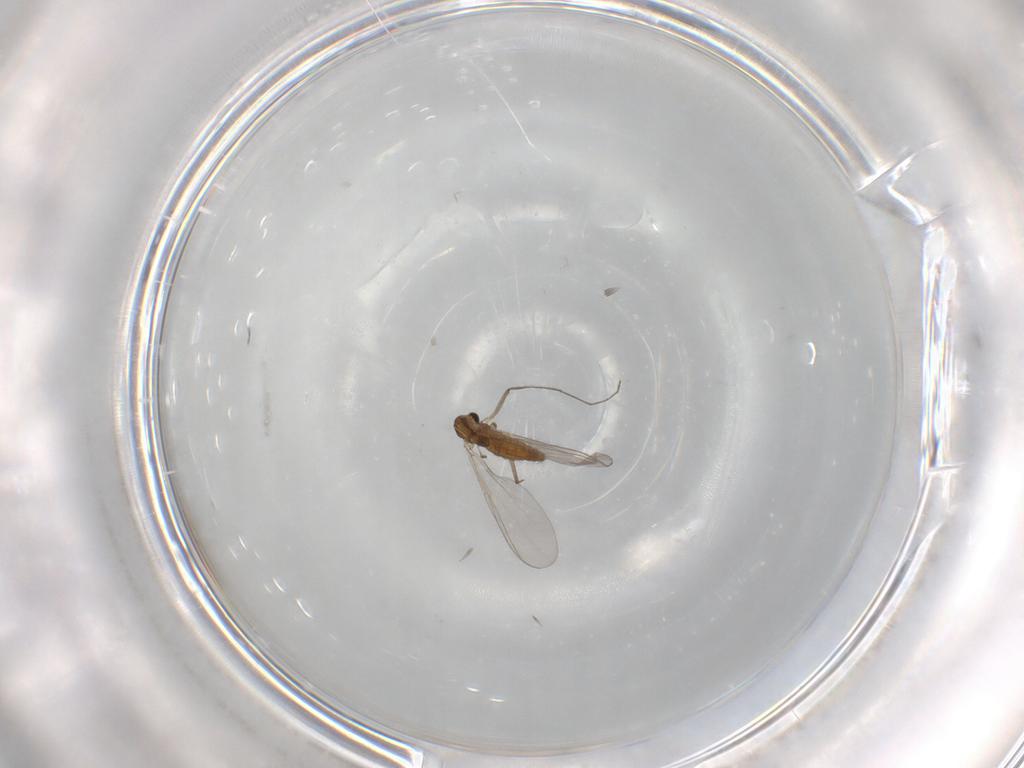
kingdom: Animalia
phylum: Arthropoda
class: Insecta
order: Diptera
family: Chironomidae
